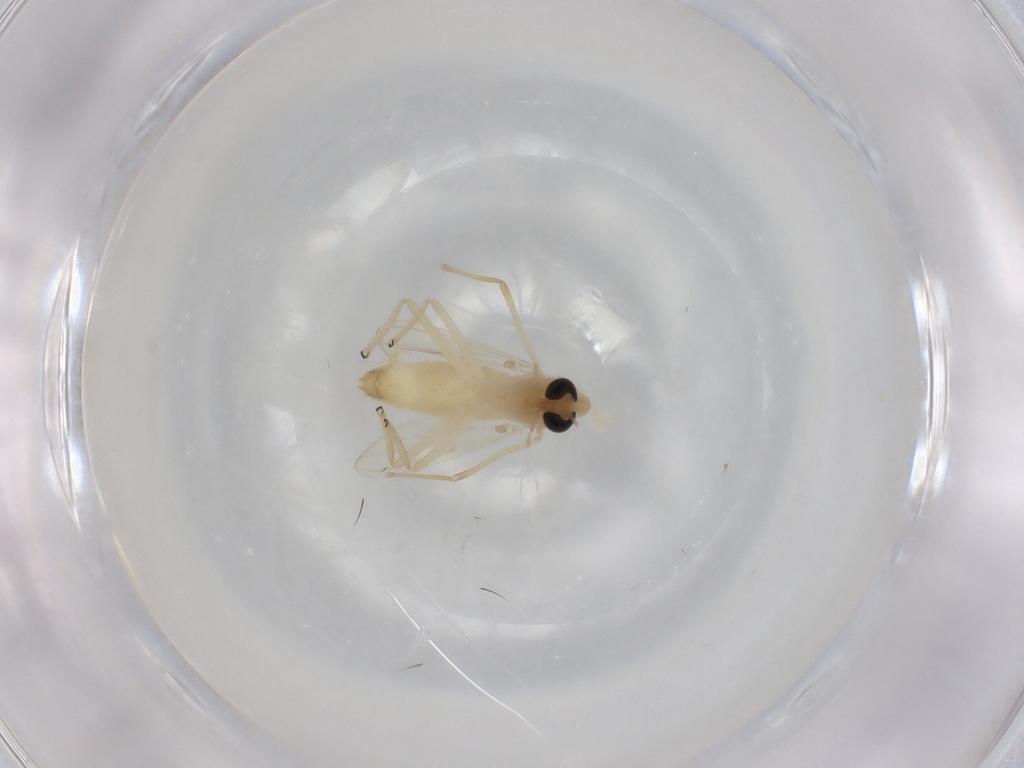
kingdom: Animalia
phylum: Arthropoda
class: Insecta
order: Diptera
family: Chironomidae
